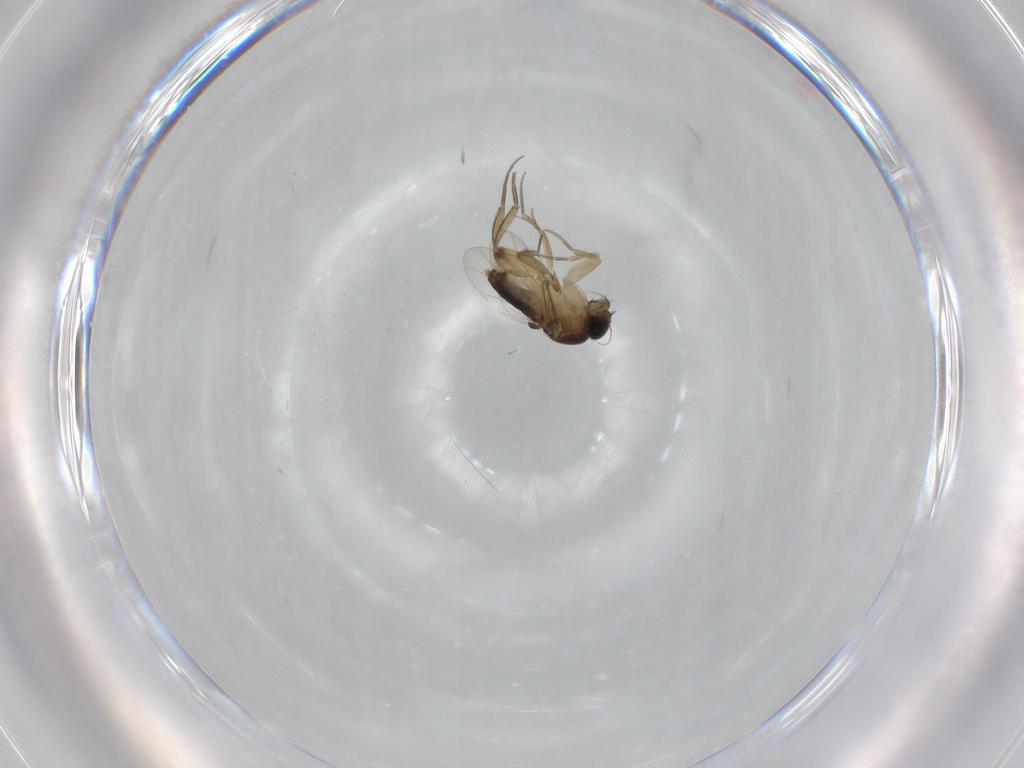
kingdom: Animalia
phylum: Arthropoda
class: Insecta
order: Diptera
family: Phoridae
